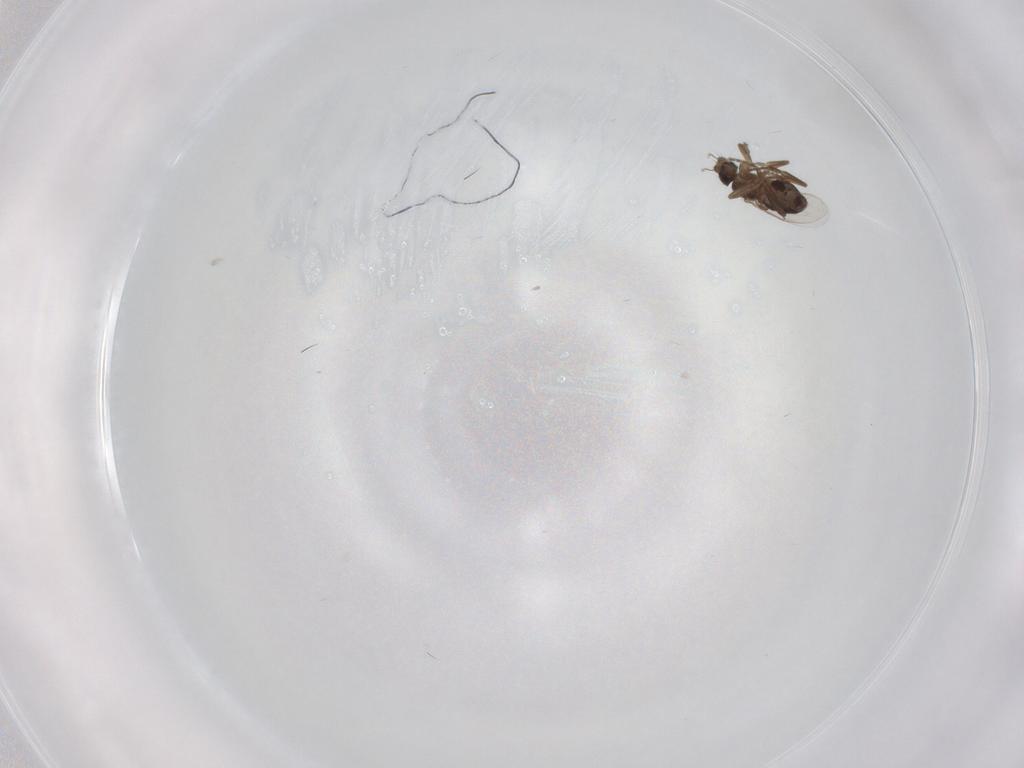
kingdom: Animalia
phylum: Arthropoda
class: Insecta
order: Diptera
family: Phoridae
